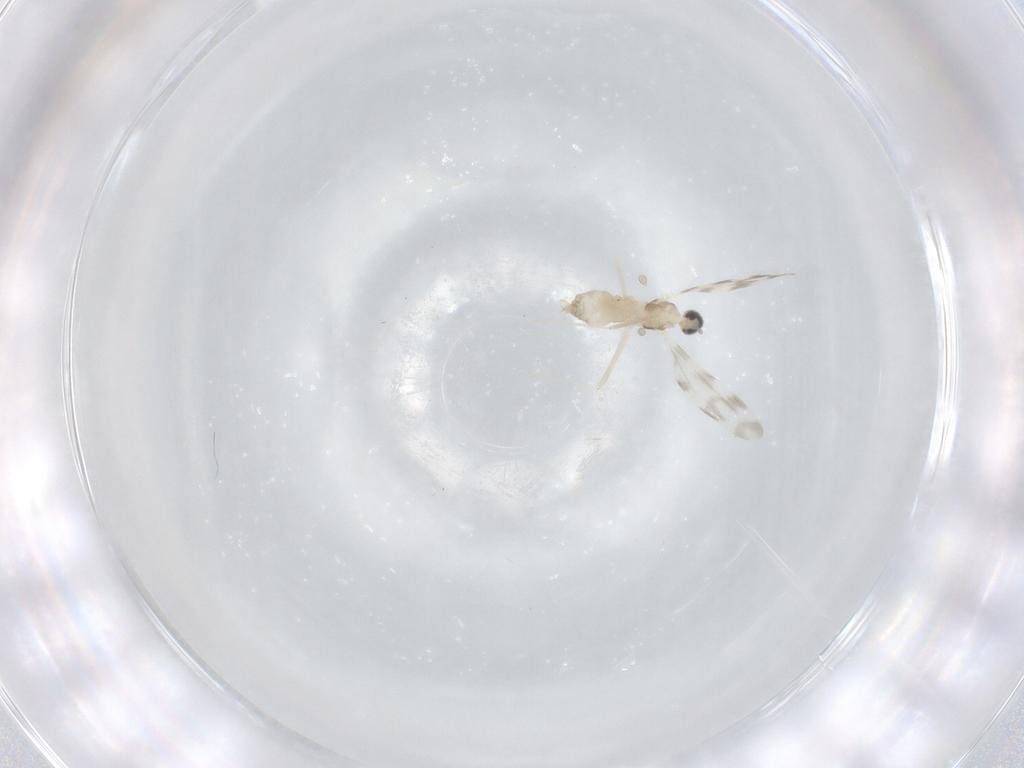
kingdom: Animalia
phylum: Arthropoda
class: Insecta
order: Diptera
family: Cecidomyiidae
